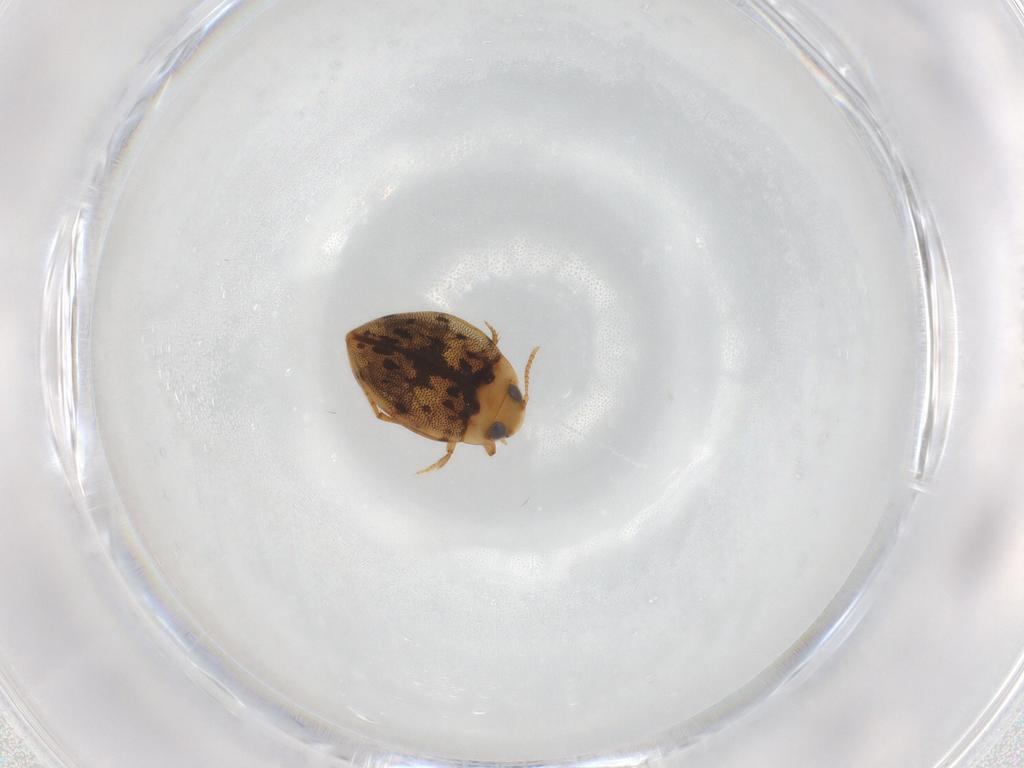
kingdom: Animalia
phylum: Arthropoda
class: Insecta
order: Coleoptera
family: Dytiscidae
